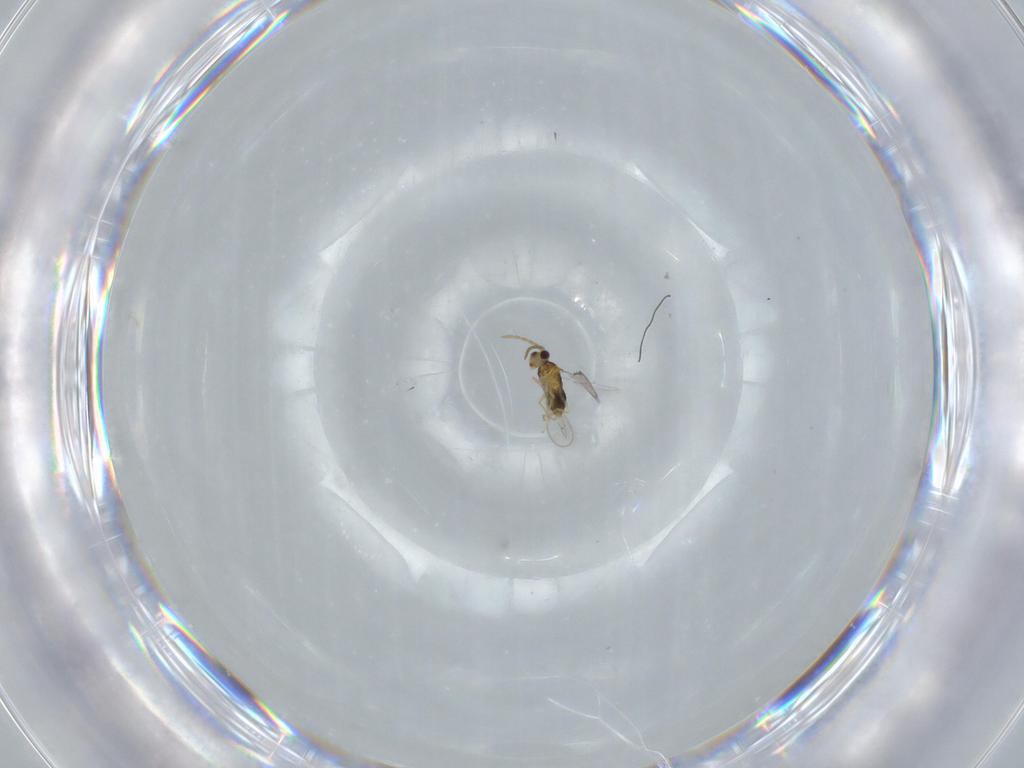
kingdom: Animalia
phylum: Arthropoda
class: Insecta
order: Hymenoptera
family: Aphelinidae
